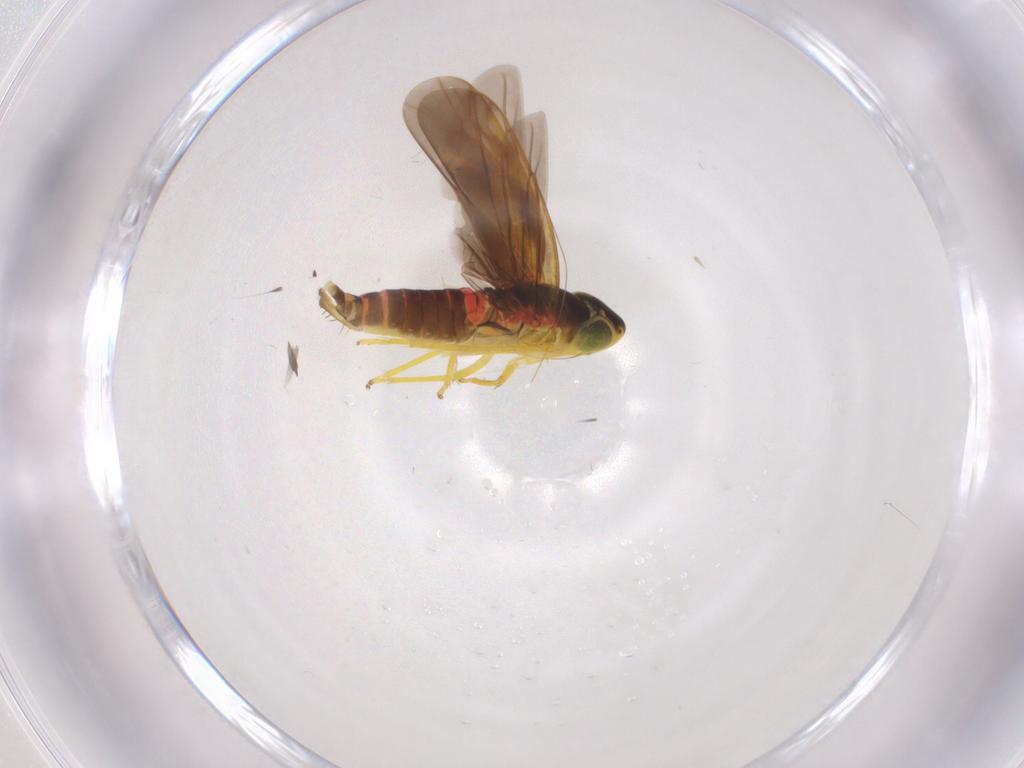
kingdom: Animalia
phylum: Arthropoda
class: Insecta
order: Hemiptera
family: Cicadellidae
